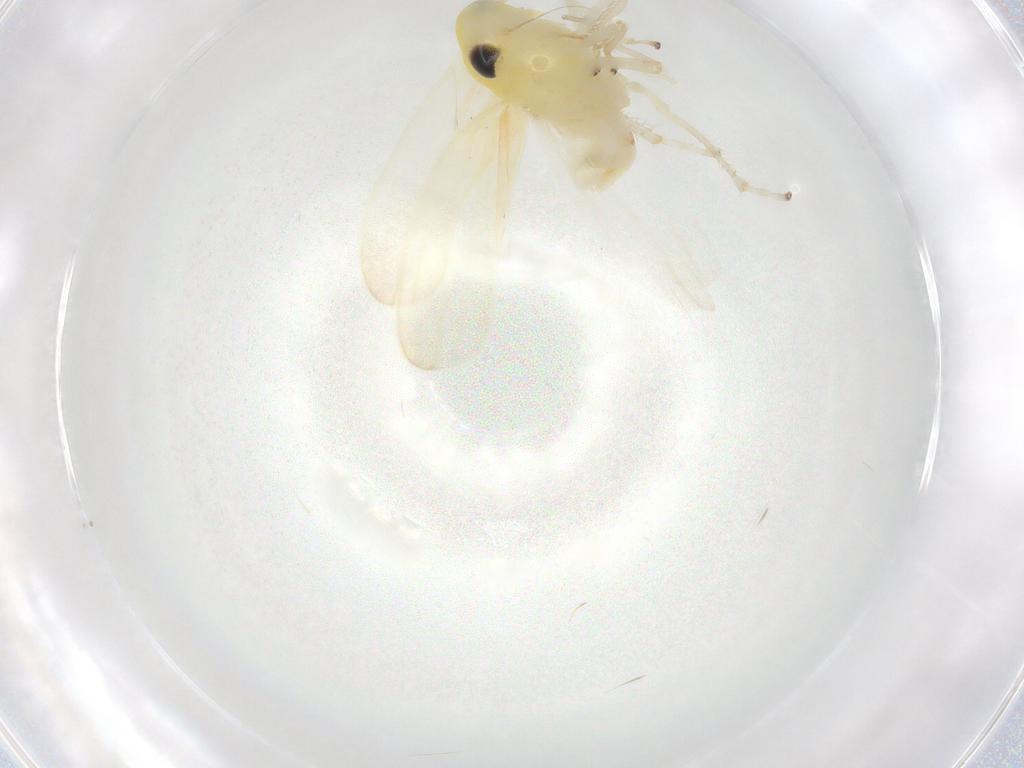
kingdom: Animalia
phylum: Arthropoda
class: Insecta
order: Hemiptera
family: Cicadellidae
